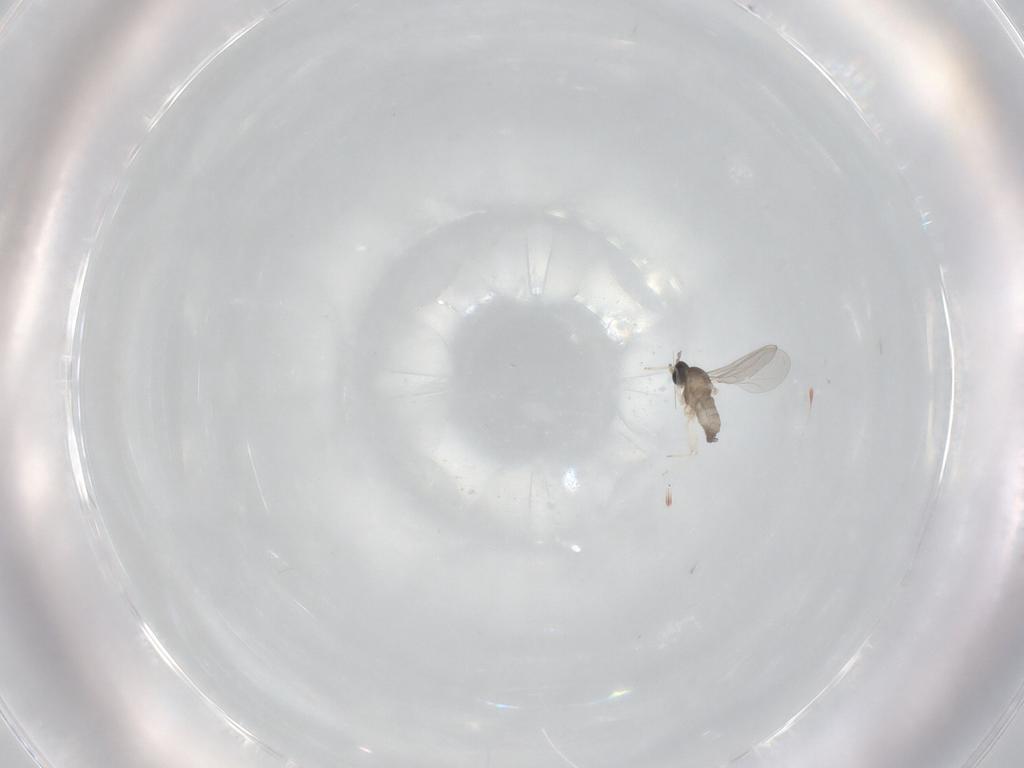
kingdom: Animalia
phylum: Arthropoda
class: Insecta
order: Diptera
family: Cecidomyiidae
